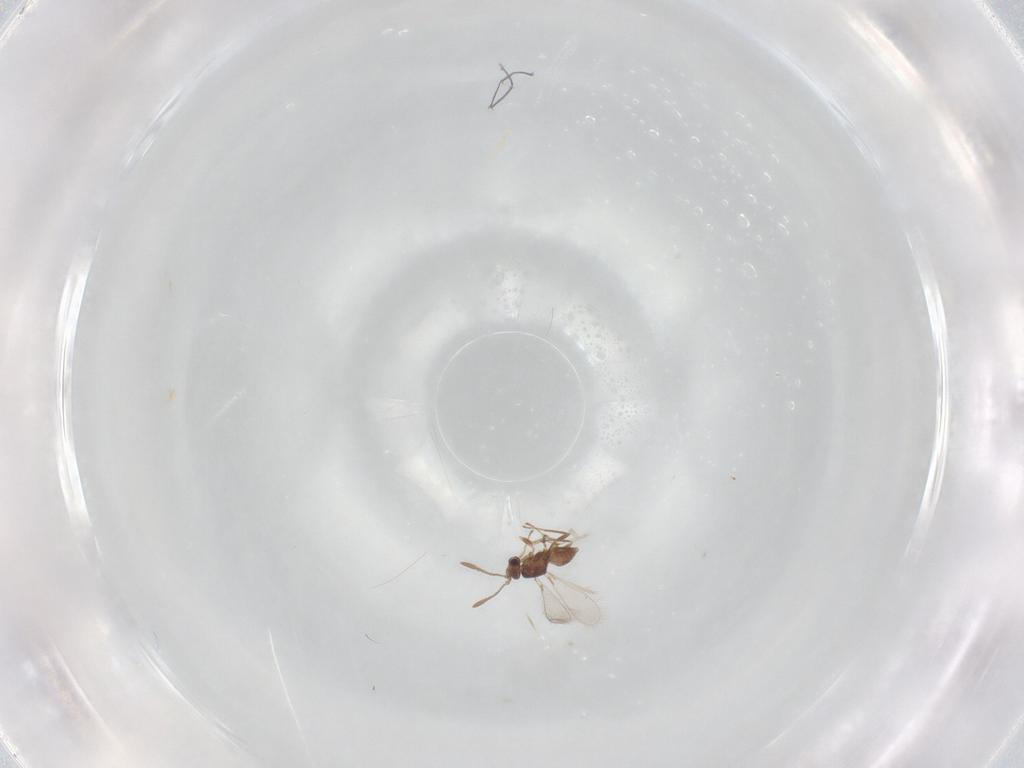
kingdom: Animalia
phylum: Arthropoda
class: Insecta
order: Hymenoptera
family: Mymaridae
